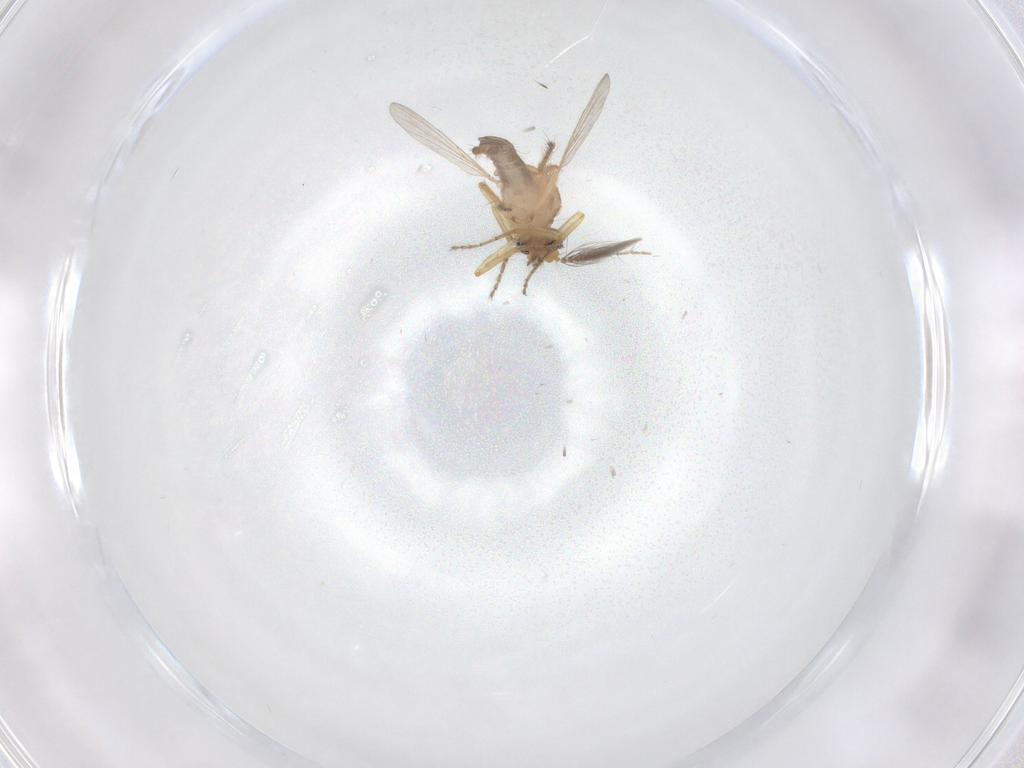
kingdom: Animalia
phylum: Arthropoda
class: Insecta
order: Diptera
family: Ceratopogonidae
